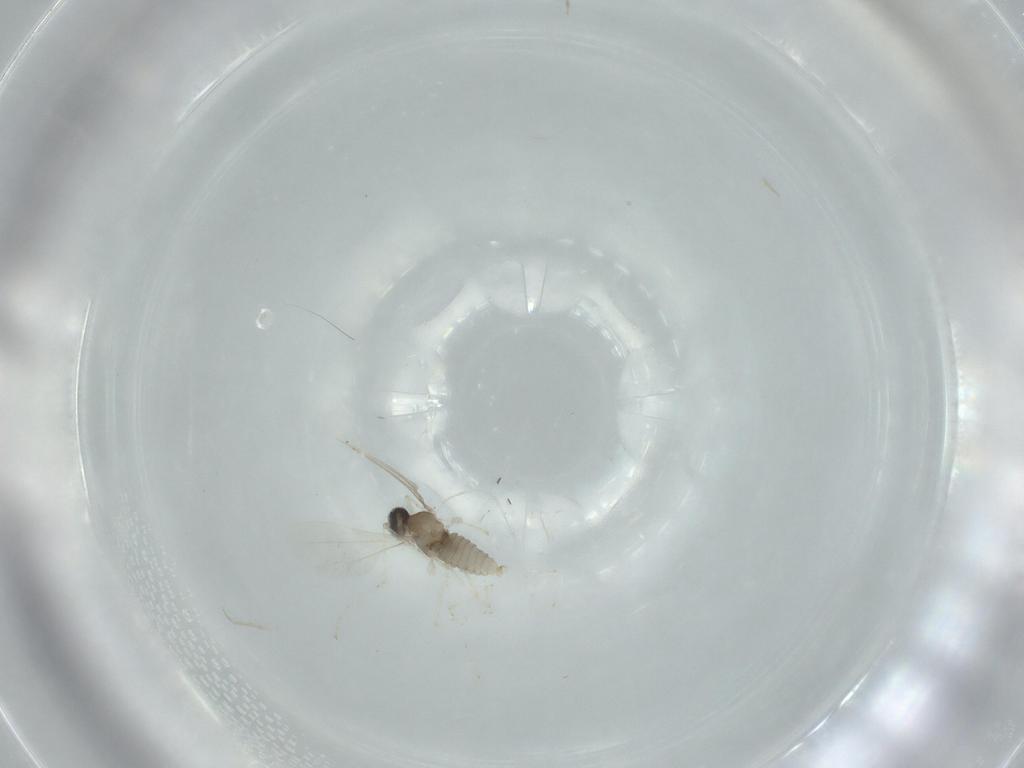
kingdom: Animalia
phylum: Arthropoda
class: Insecta
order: Diptera
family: Cecidomyiidae
